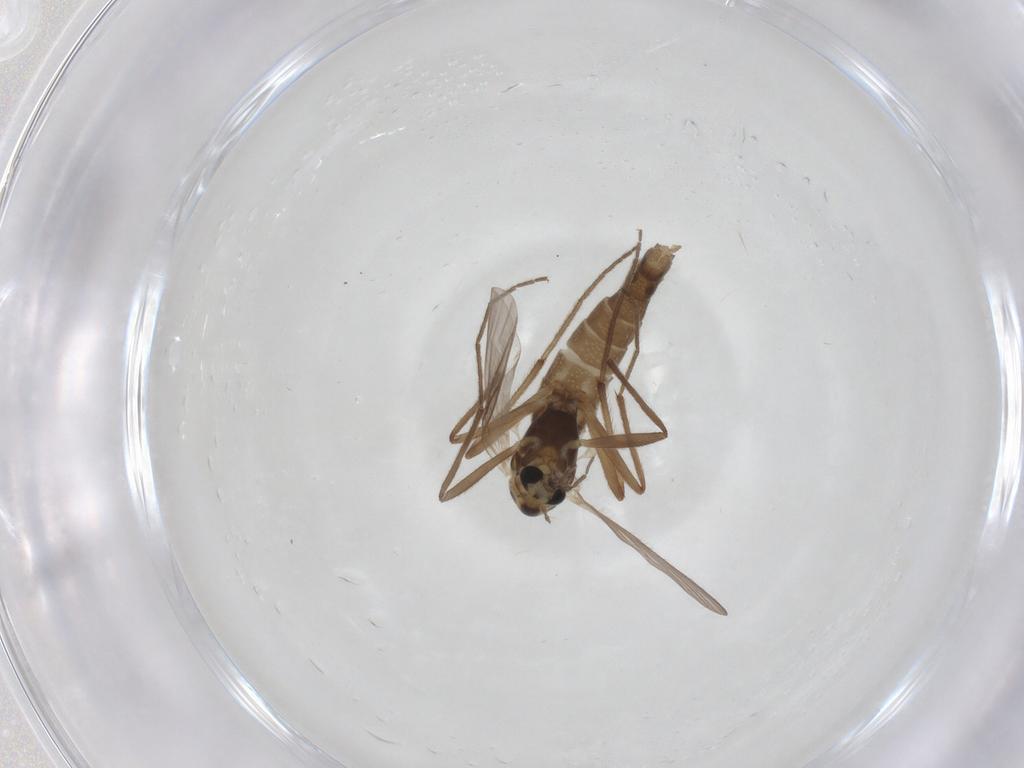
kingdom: Animalia
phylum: Arthropoda
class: Insecta
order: Diptera
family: Chironomidae
